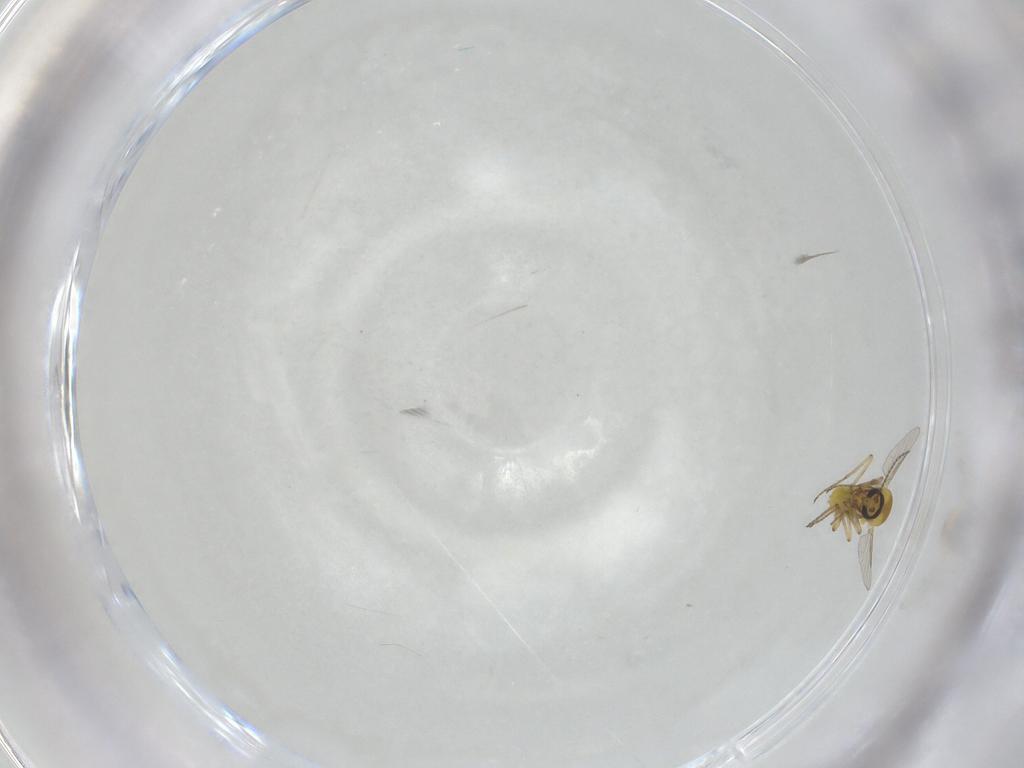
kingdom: Animalia
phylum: Arthropoda
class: Insecta
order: Diptera
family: Ceratopogonidae
